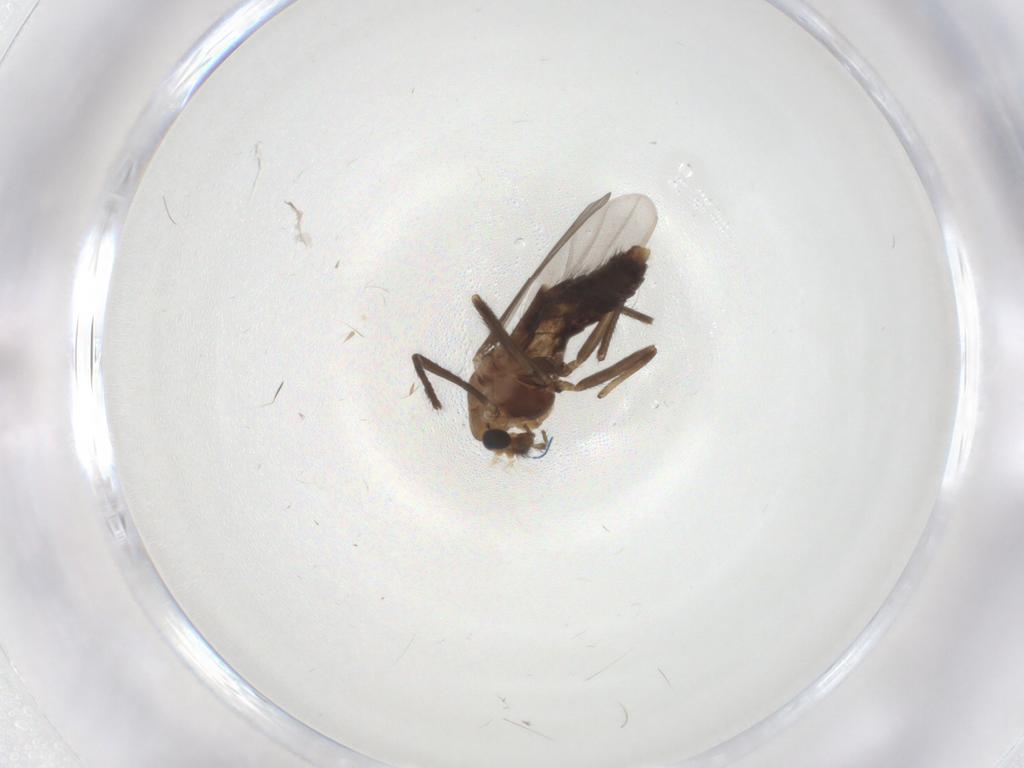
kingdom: Animalia
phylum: Arthropoda
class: Insecta
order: Diptera
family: Chironomidae
